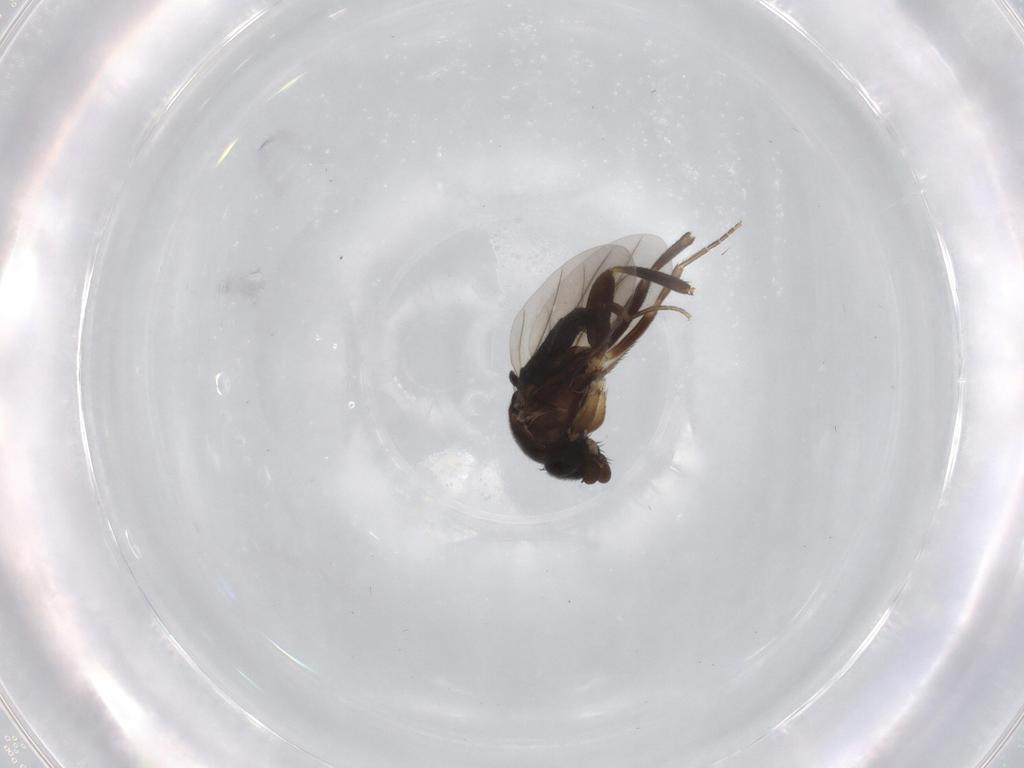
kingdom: Animalia
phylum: Arthropoda
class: Insecta
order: Diptera
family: Phoridae
